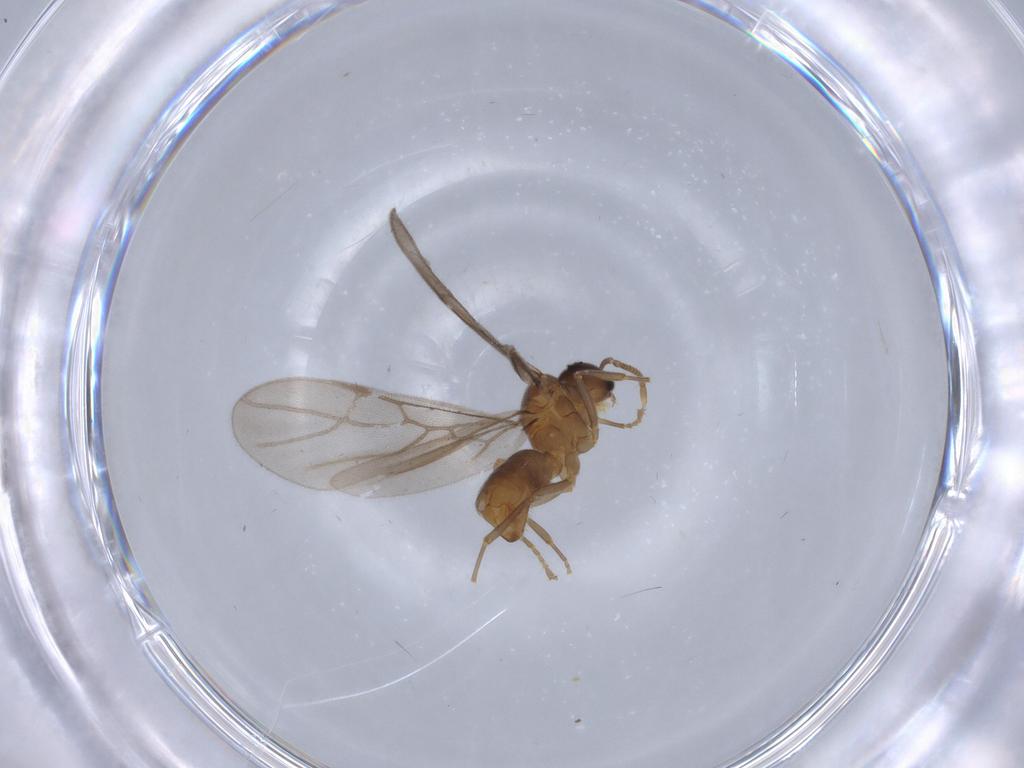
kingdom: Animalia
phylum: Arthropoda
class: Insecta
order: Hymenoptera
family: Formicidae
